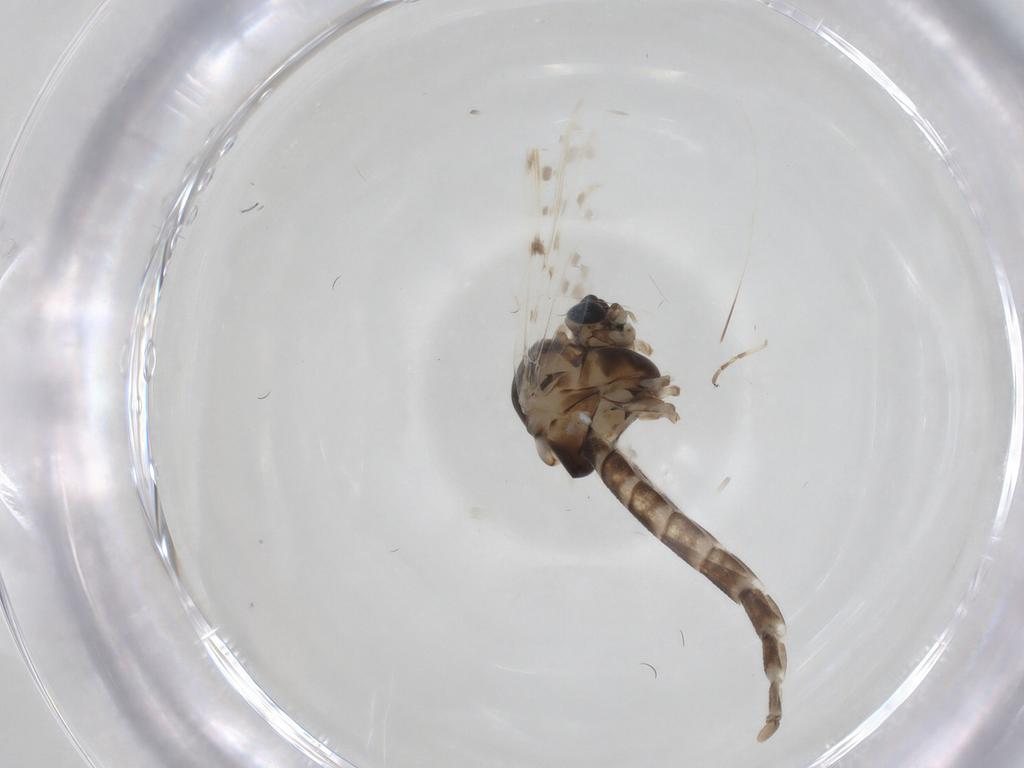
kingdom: Animalia
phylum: Arthropoda
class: Insecta
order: Diptera
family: Chironomidae
